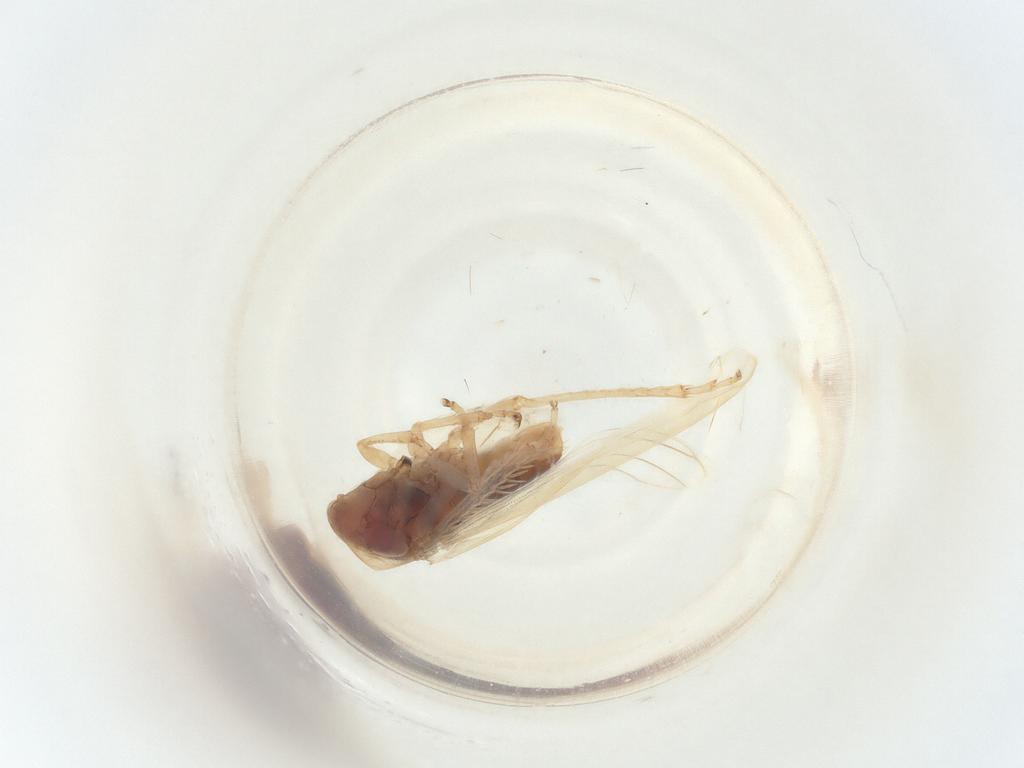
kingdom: Animalia
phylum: Arthropoda
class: Insecta
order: Hemiptera
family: Cicadellidae
